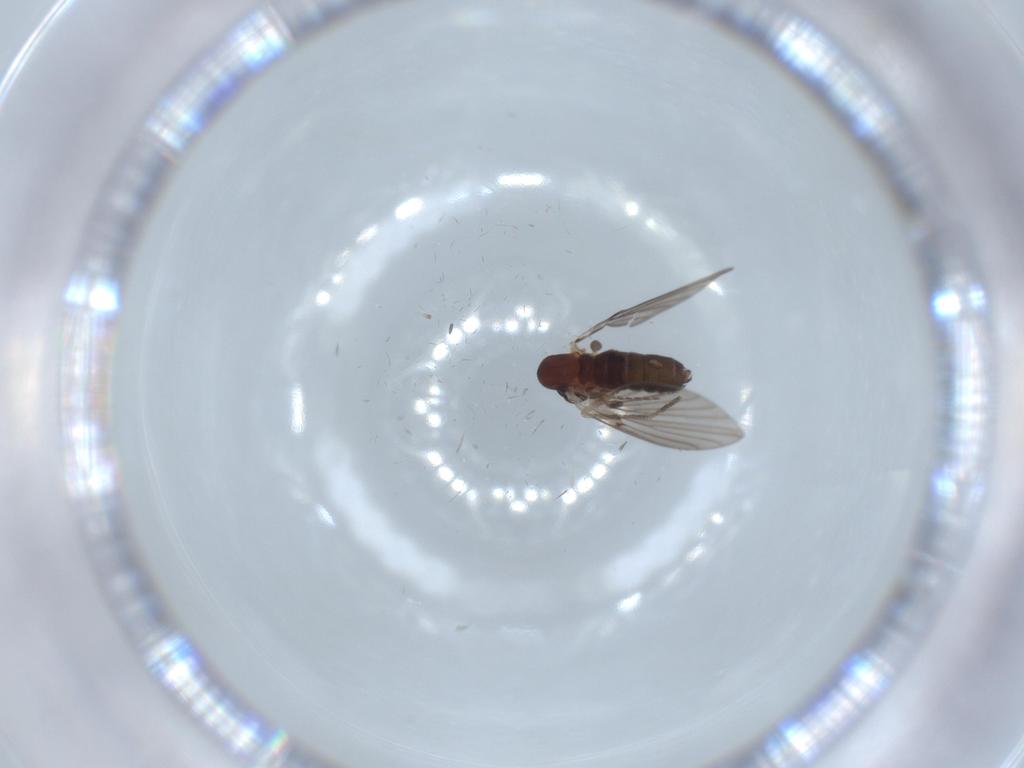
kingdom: Animalia
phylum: Arthropoda
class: Insecta
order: Diptera
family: Psychodidae
